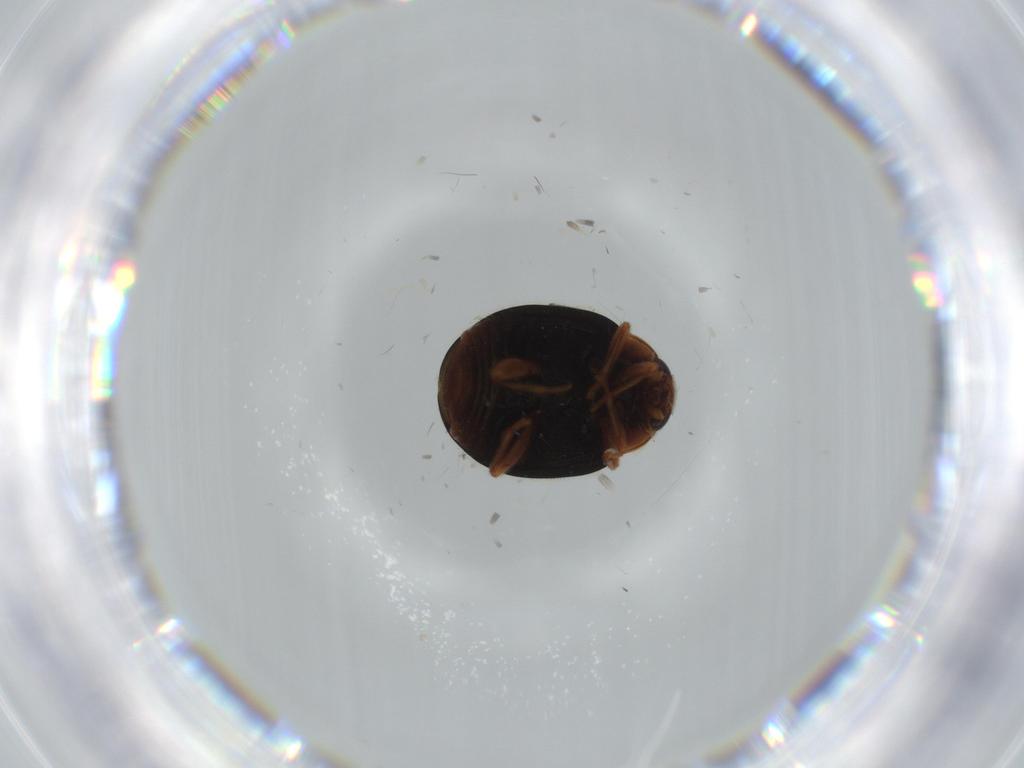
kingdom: Animalia
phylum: Arthropoda
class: Insecta
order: Coleoptera
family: Coccinellidae
